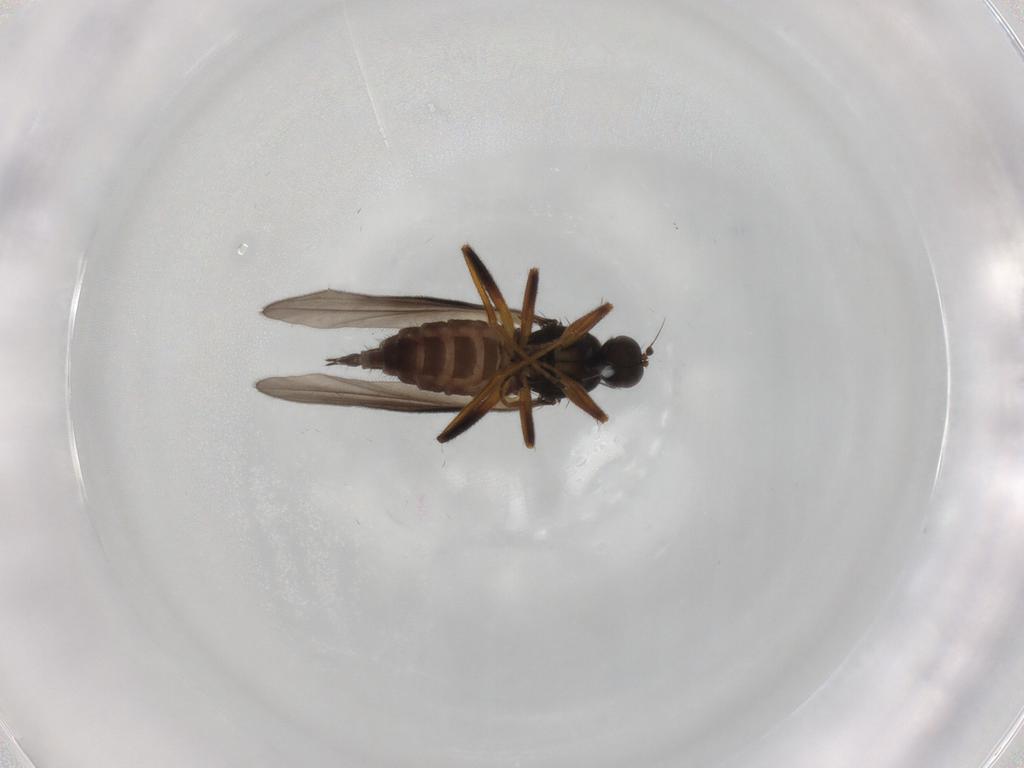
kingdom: Animalia
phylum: Arthropoda
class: Insecta
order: Diptera
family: Hybotidae
